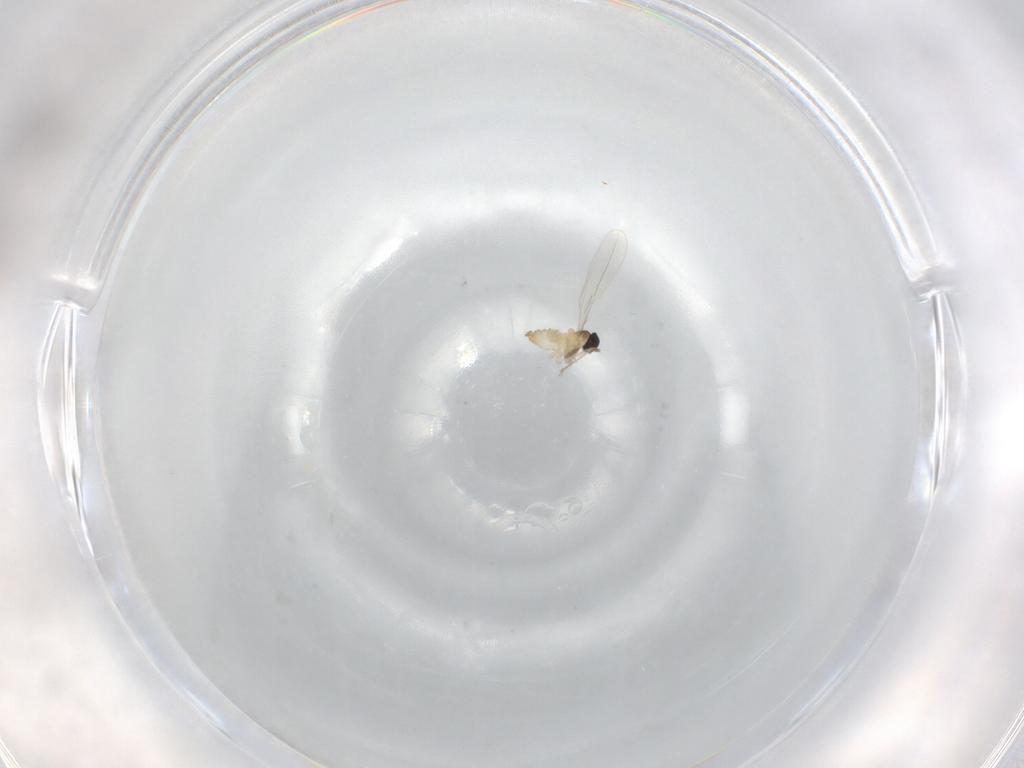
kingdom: Animalia
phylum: Arthropoda
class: Insecta
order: Diptera
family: Cecidomyiidae
